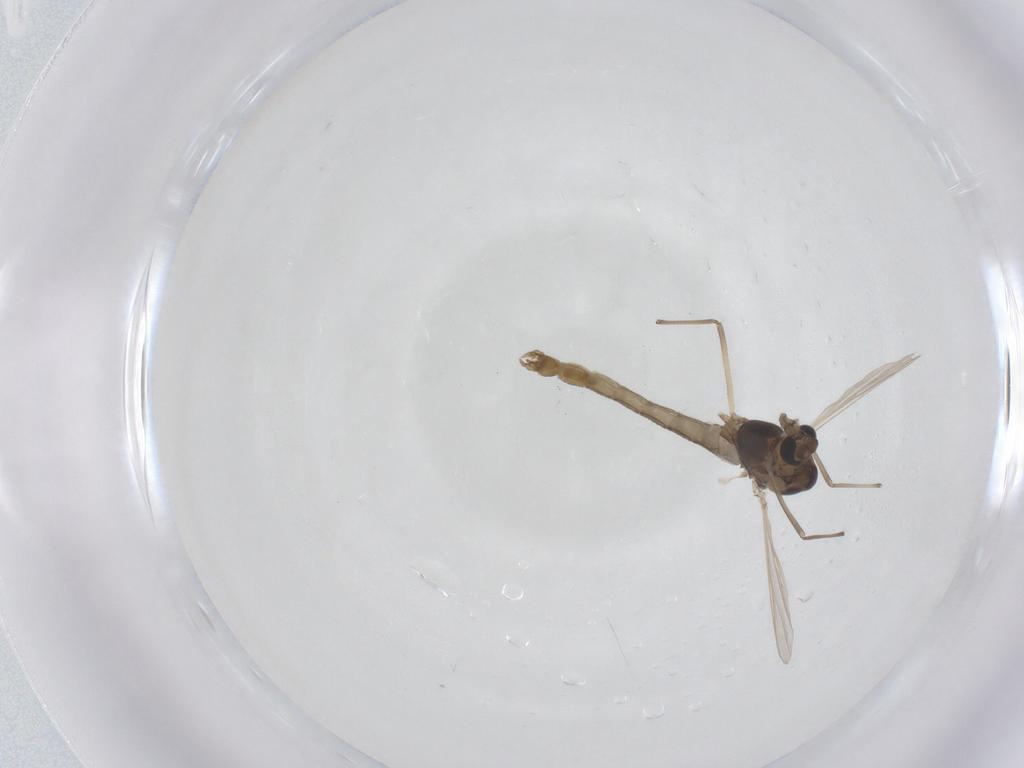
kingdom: Animalia
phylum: Arthropoda
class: Insecta
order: Diptera
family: Chironomidae
